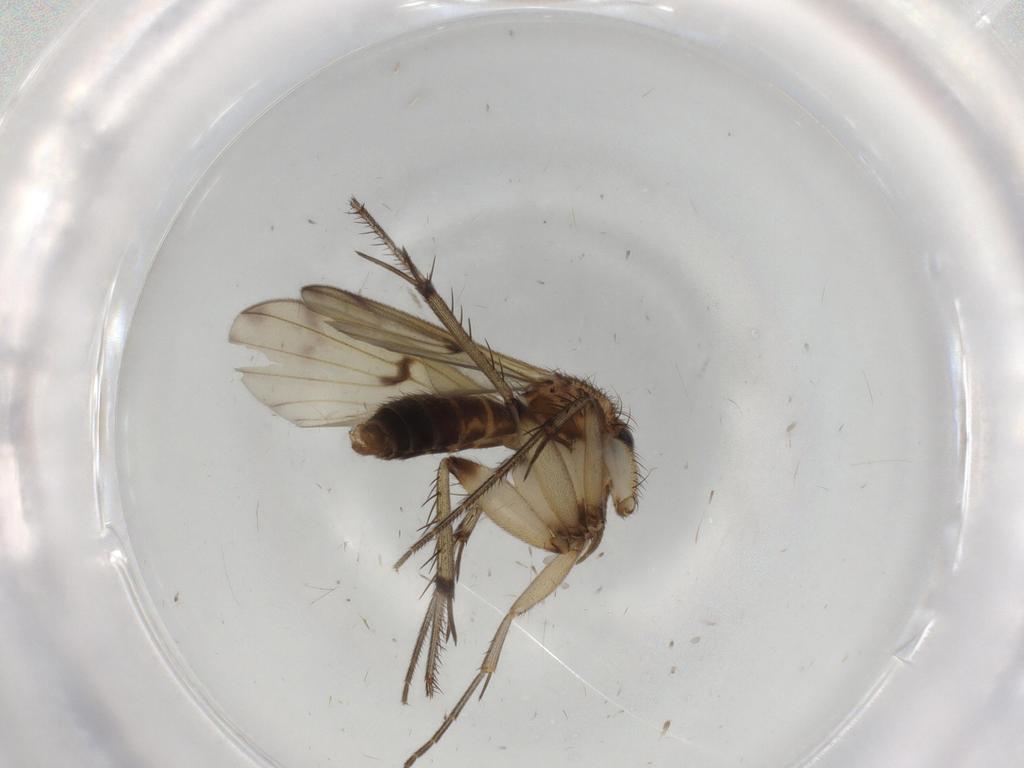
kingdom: Animalia
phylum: Arthropoda
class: Insecta
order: Diptera
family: Mycetophilidae
